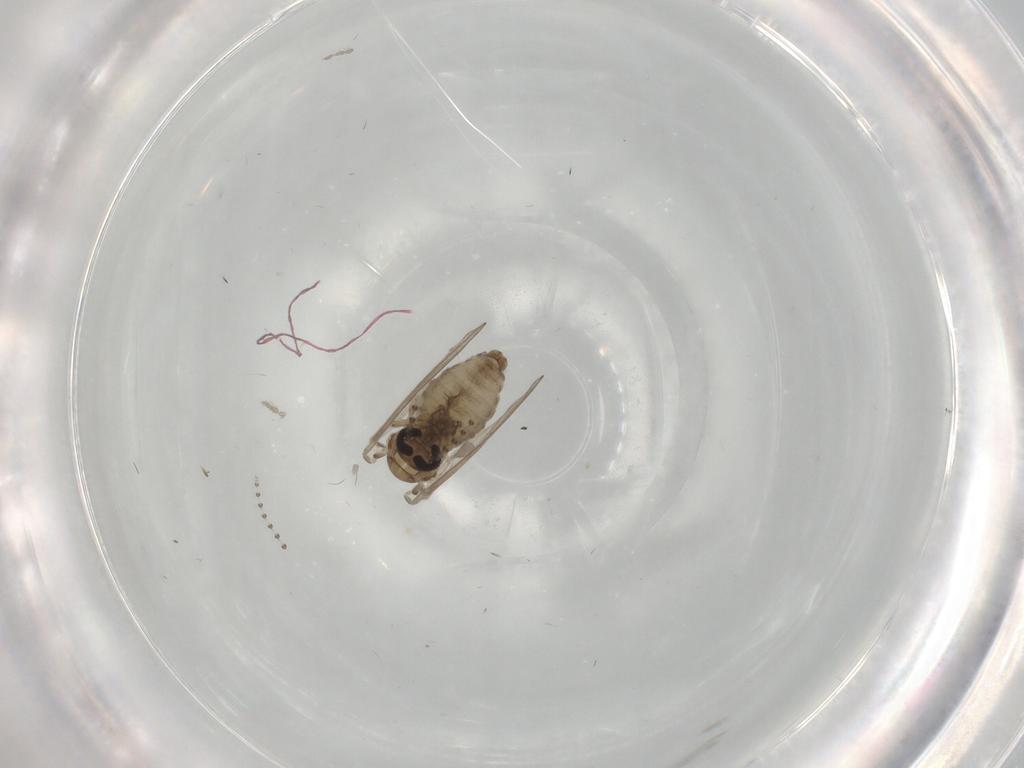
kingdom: Animalia
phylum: Arthropoda
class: Insecta
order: Diptera
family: Psychodidae
